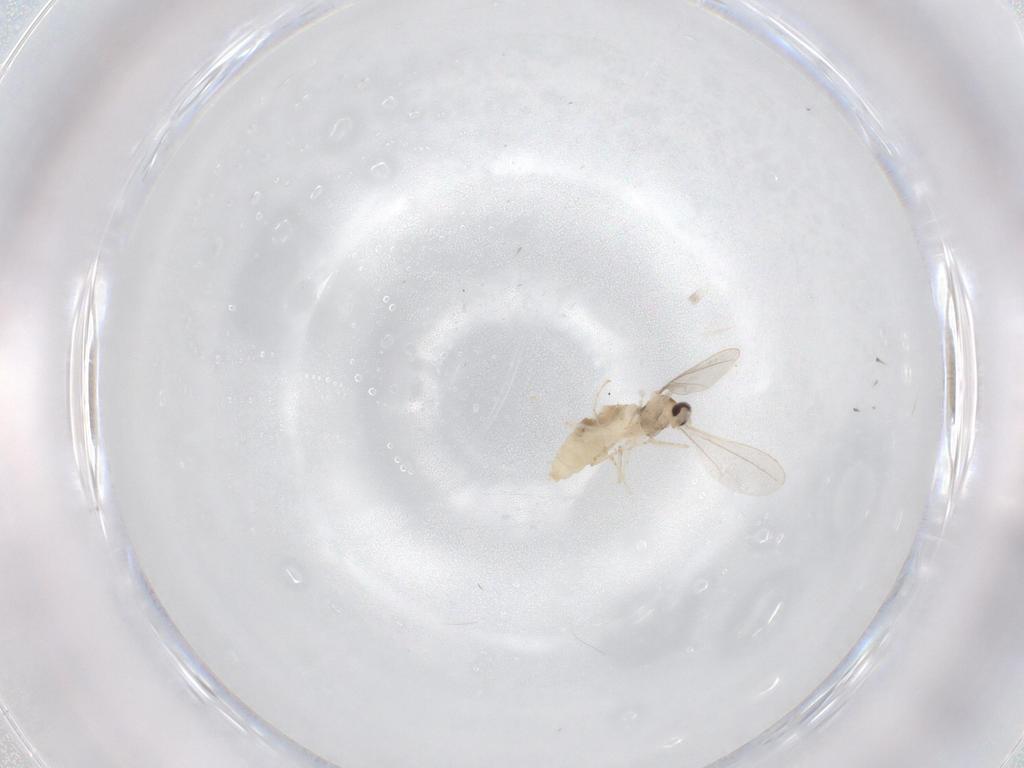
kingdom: Animalia
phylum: Arthropoda
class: Insecta
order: Diptera
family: Cecidomyiidae
